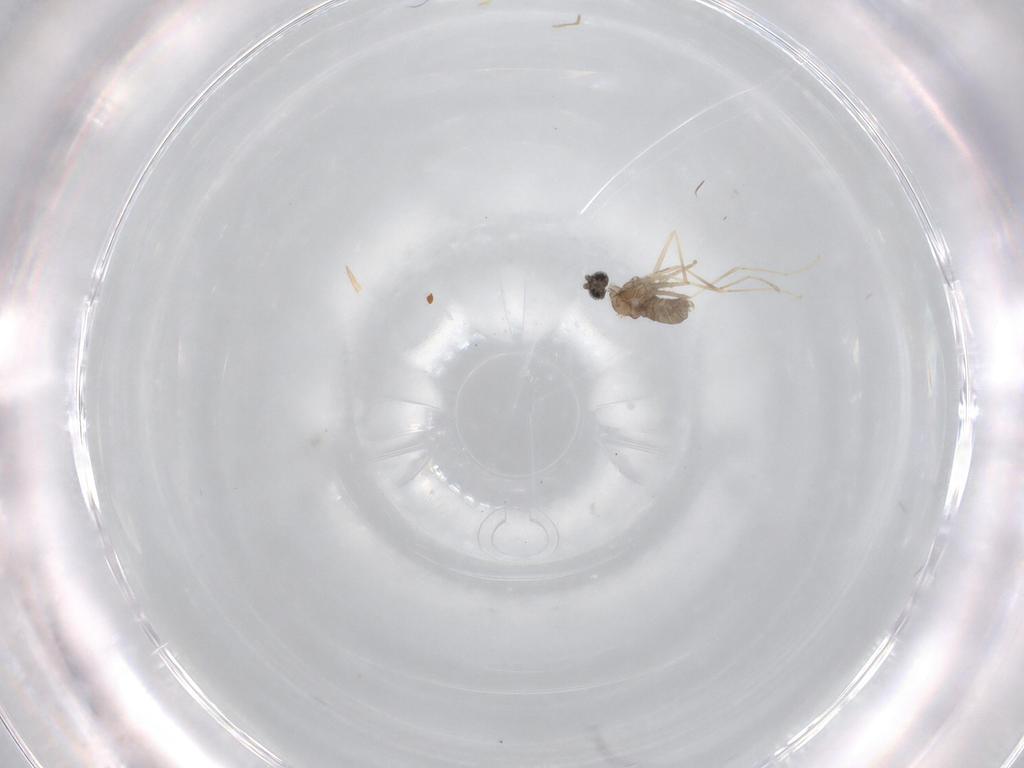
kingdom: Animalia
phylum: Arthropoda
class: Insecta
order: Diptera
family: Cecidomyiidae
